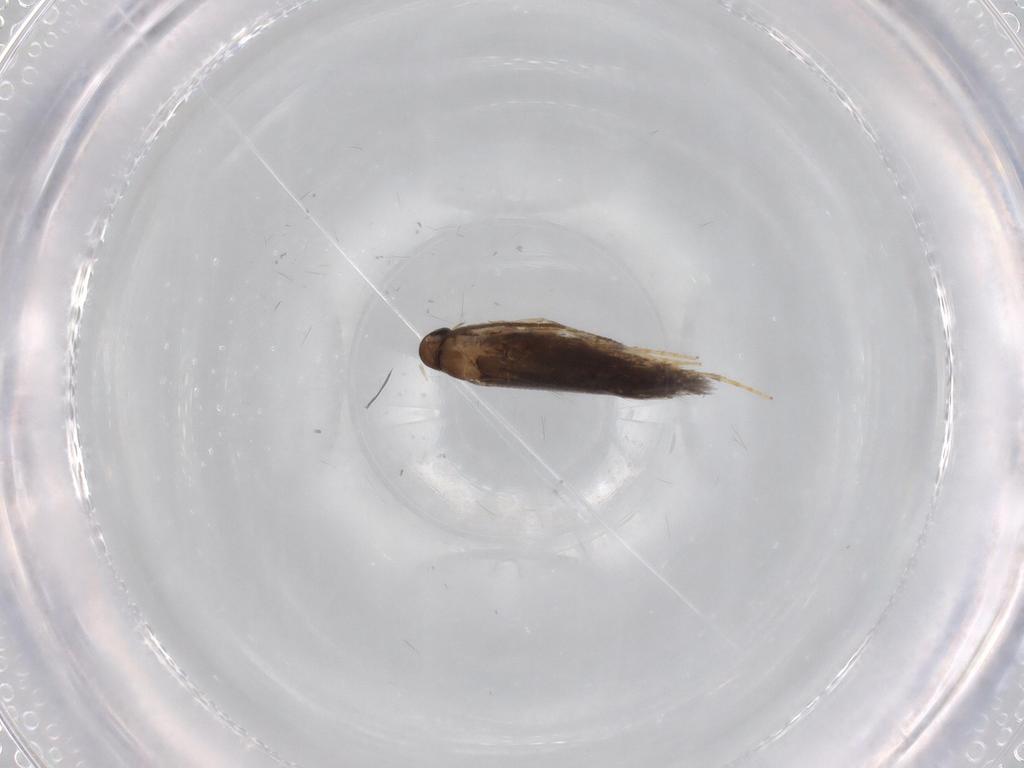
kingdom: Animalia
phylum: Arthropoda
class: Insecta
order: Lepidoptera
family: Heliozelidae
